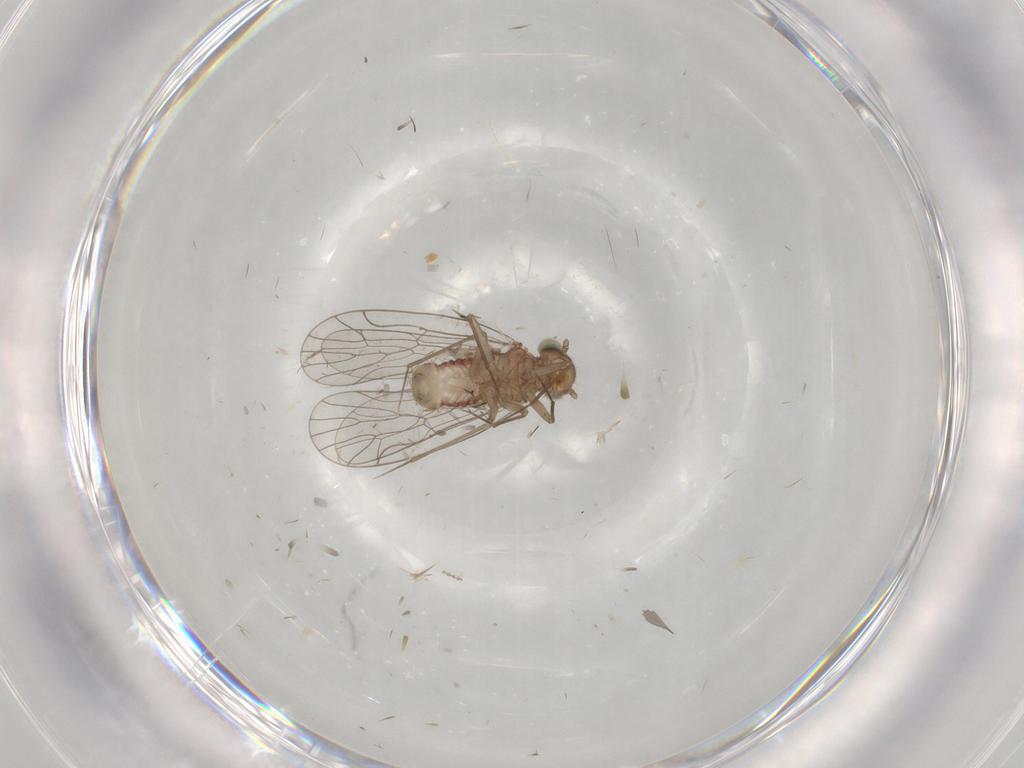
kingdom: Animalia
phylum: Arthropoda
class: Insecta
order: Psocodea
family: Amphientomidae
